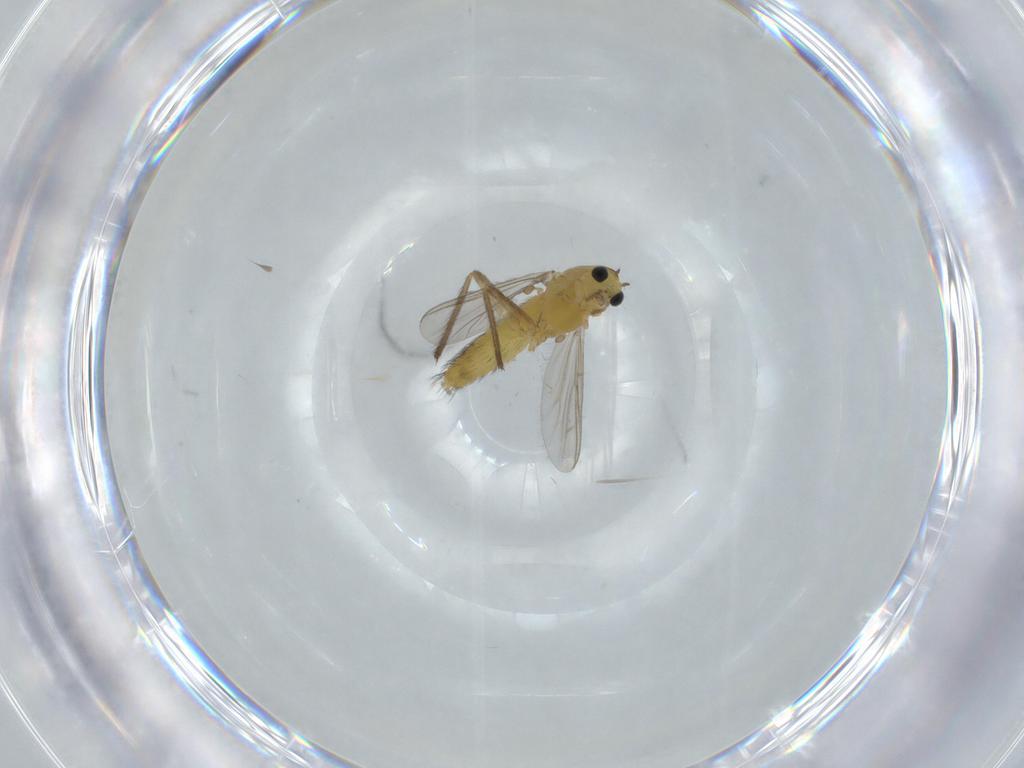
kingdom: Animalia
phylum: Arthropoda
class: Insecta
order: Diptera
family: Chironomidae
